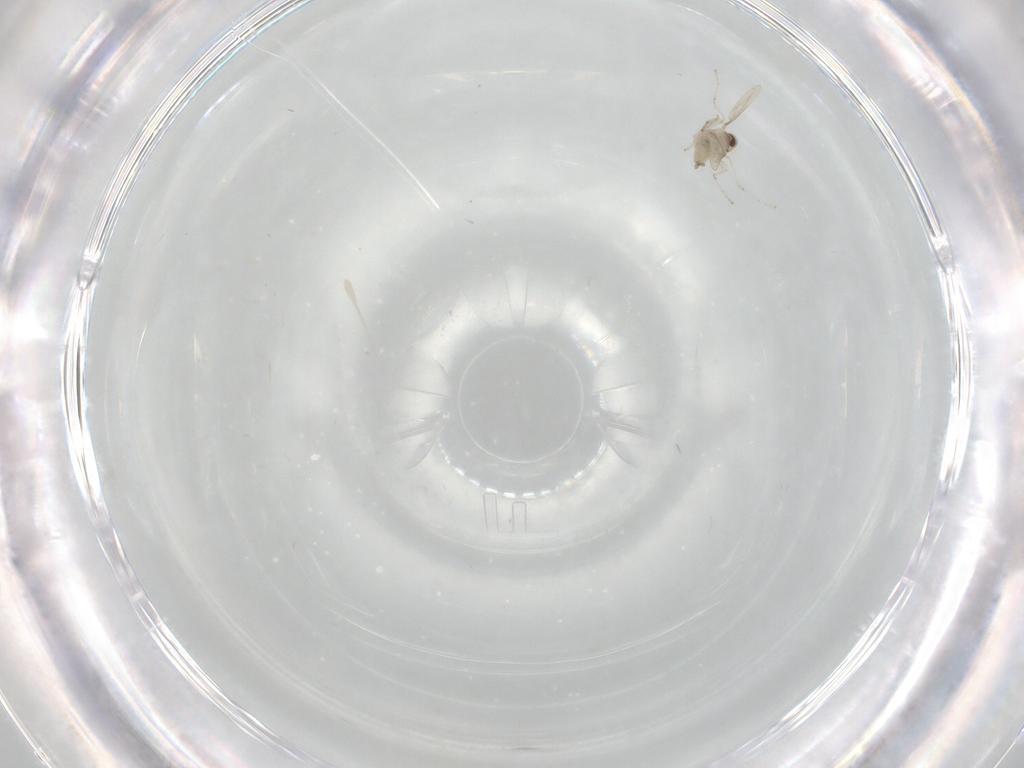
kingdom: Animalia
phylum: Arthropoda
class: Insecta
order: Diptera
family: Cecidomyiidae
